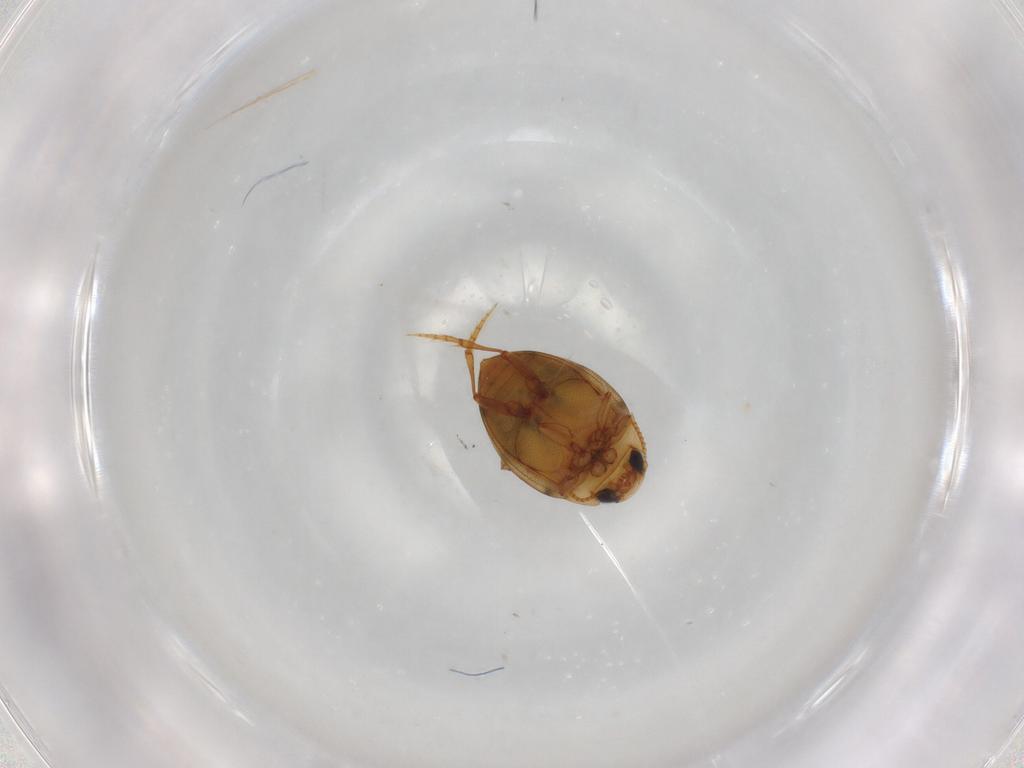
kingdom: Animalia
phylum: Arthropoda
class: Insecta
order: Coleoptera
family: Dytiscidae
